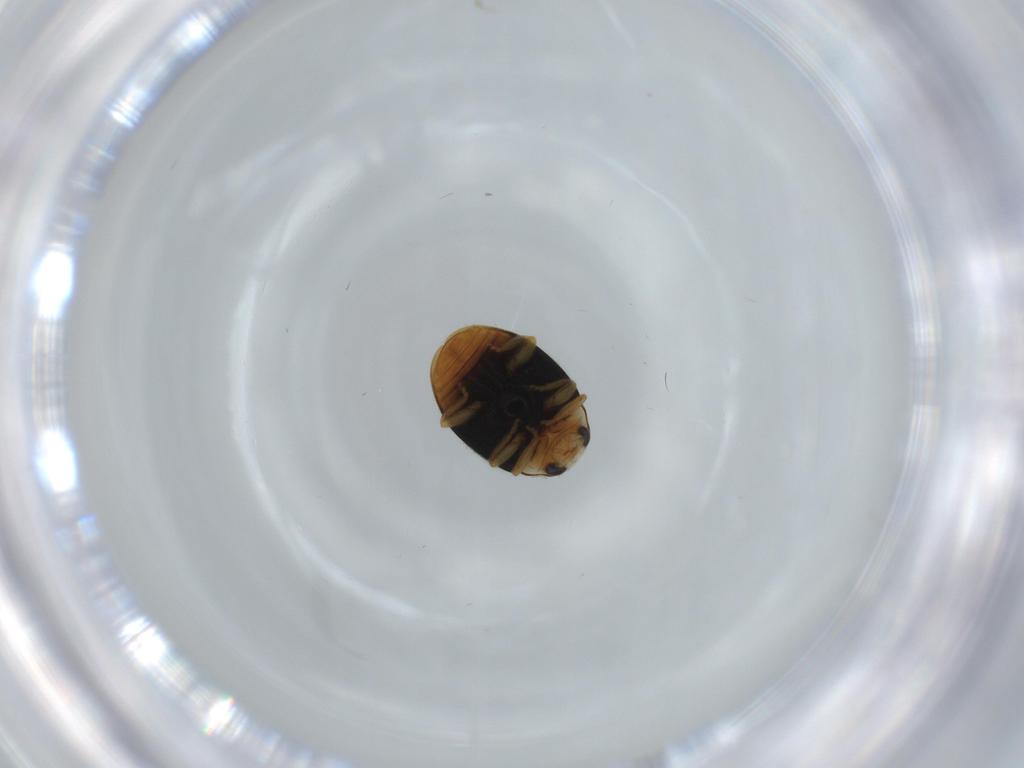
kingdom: Animalia
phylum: Arthropoda
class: Insecta
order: Coleoptera
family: Coccinellidae
